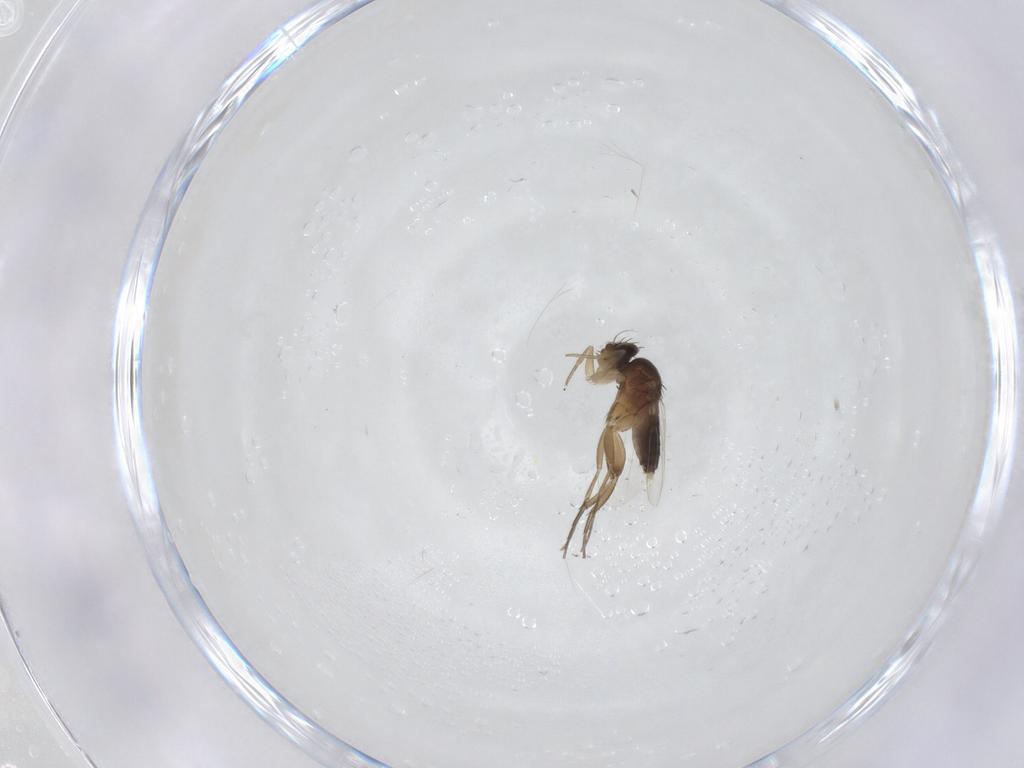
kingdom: Animalia
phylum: Arthropoda
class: Insecta
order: Diptera
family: Phoridae
